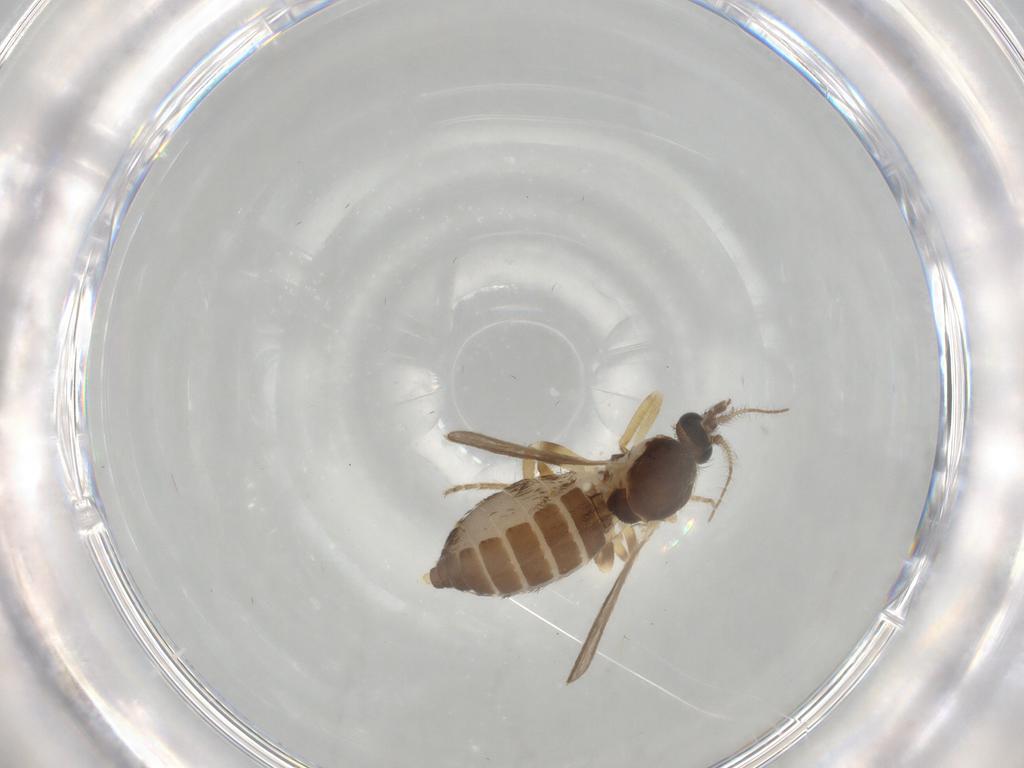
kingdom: Animalia
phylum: Arthropoda
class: Insecta
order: Diptera
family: Ceratopogonidae
